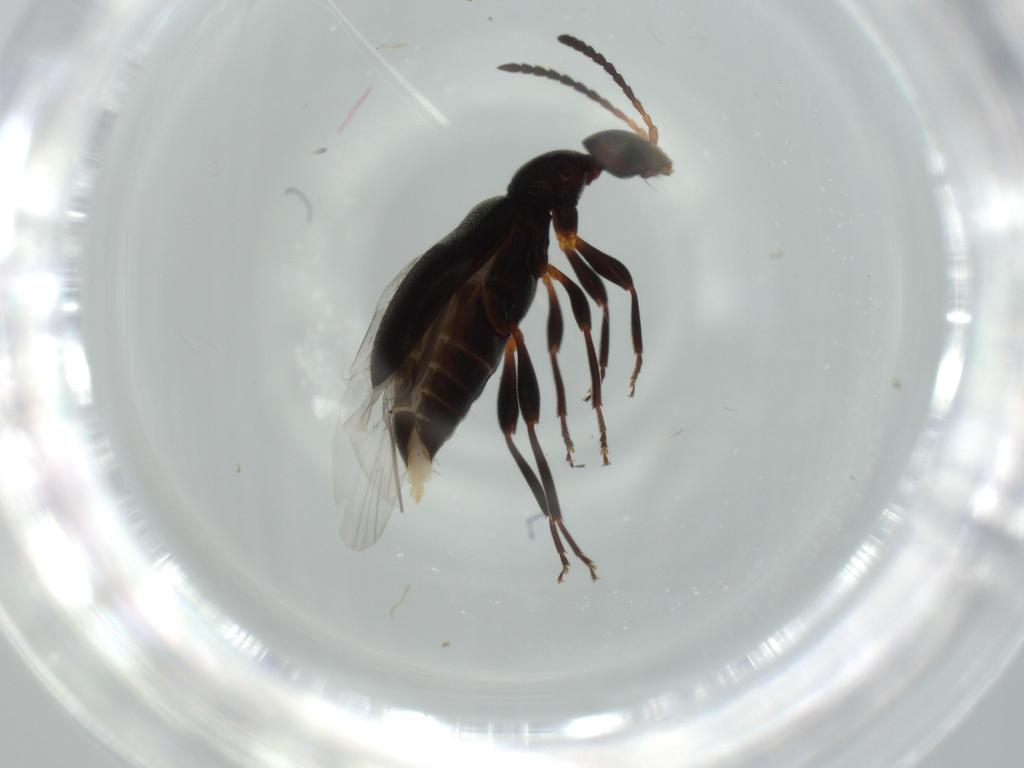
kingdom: Animalia
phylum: Arthropoda
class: Insecta
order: Coleoptera
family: Anthicidae
